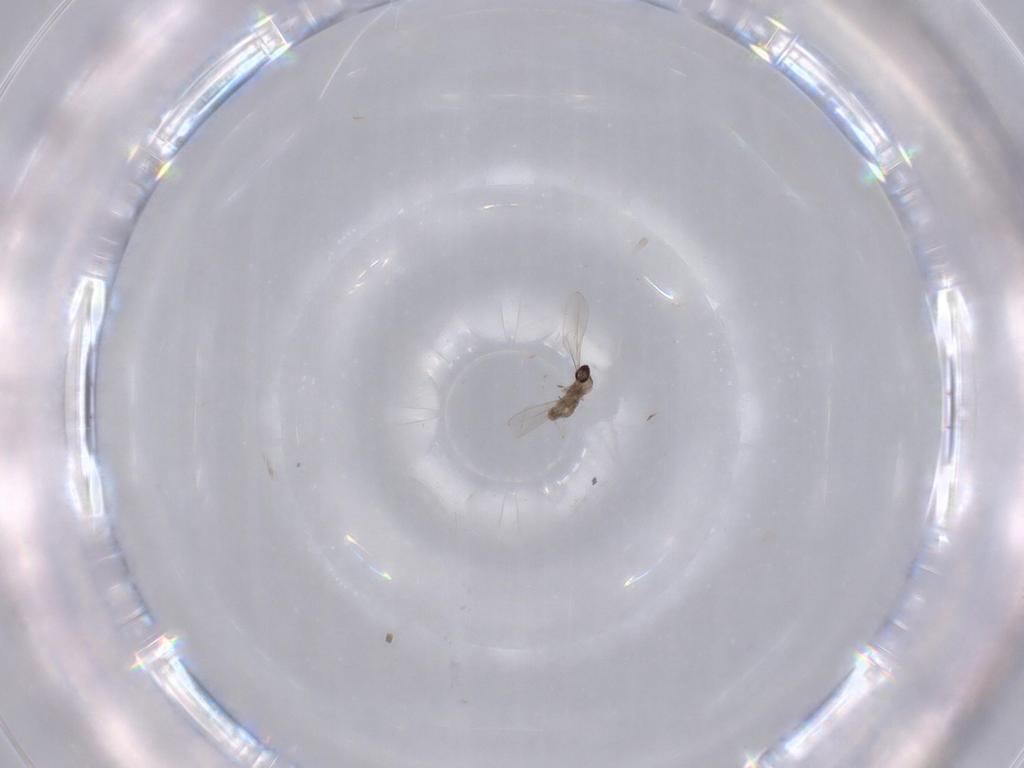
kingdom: Animalia
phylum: Arthropoda
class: Insecta
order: Diptera
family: Cecidomyiidae
